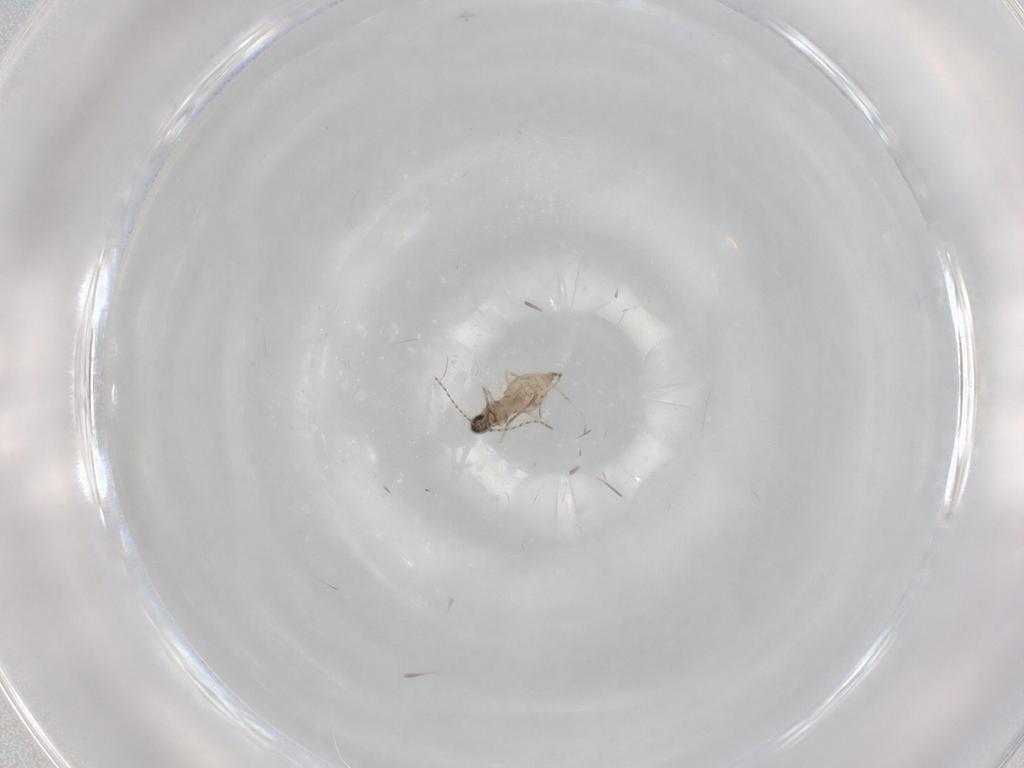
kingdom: Animalia
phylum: Arthropoda
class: Insecta
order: Diptera
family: Cecidomyiidae
